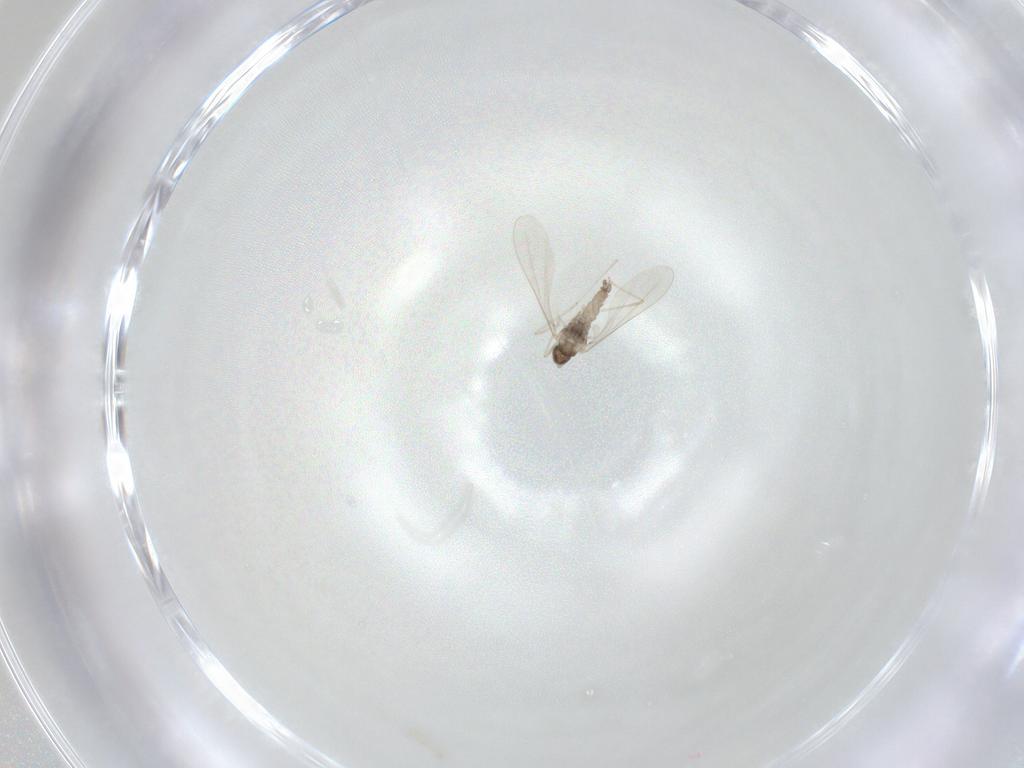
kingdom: Animalia
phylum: Arthropoda
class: Insecta
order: Diptera
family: Cecidomyiidae
